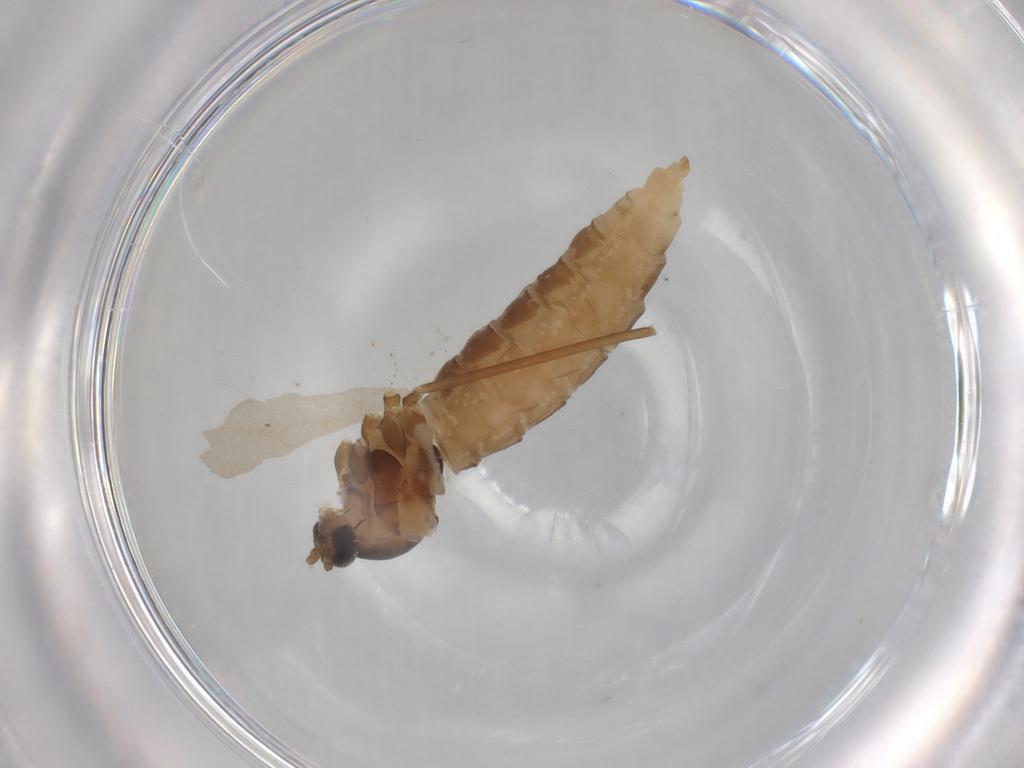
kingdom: Animalia
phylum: Arthropoda
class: Insecta
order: Diptera
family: Cecidomyiidae
